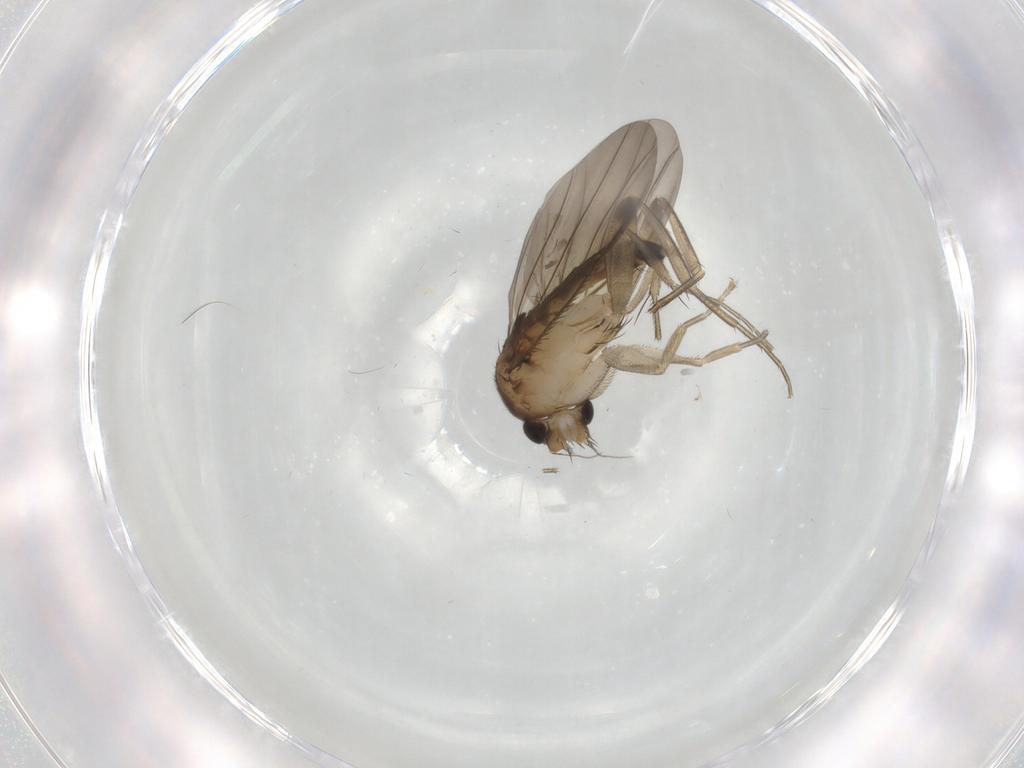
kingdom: Animalia
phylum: Arthropoda
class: Insecta
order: Diptera
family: Phoridae
